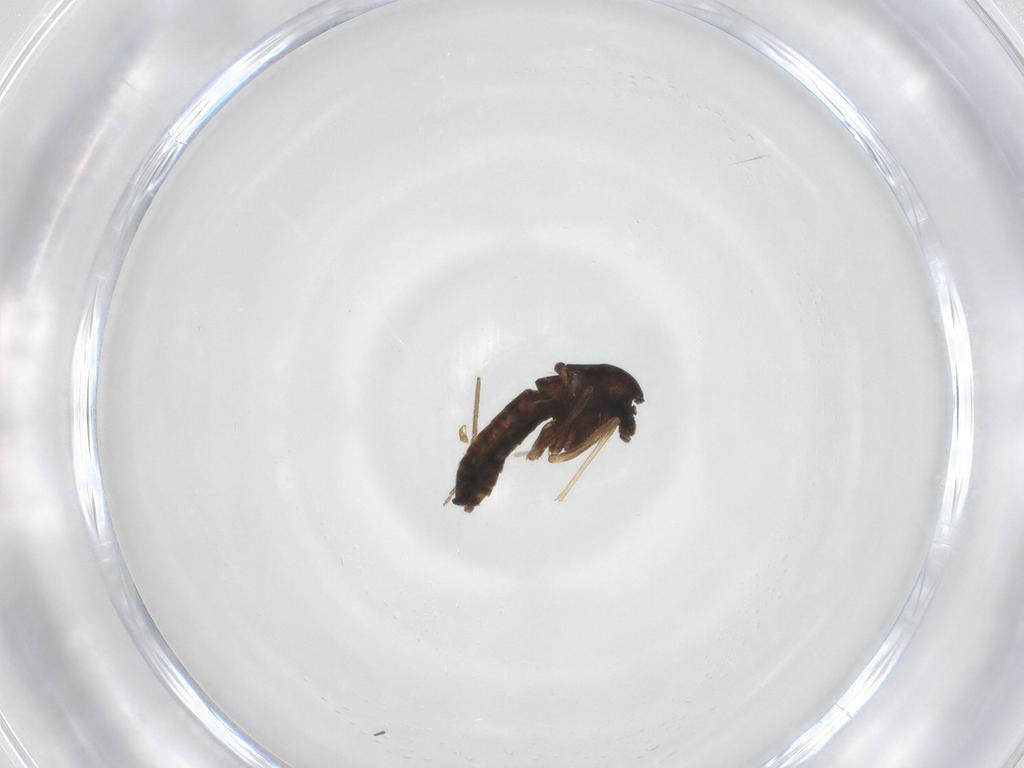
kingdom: Animalia
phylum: Arthropoda
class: Insecta
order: Diptera
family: Chironomidae
